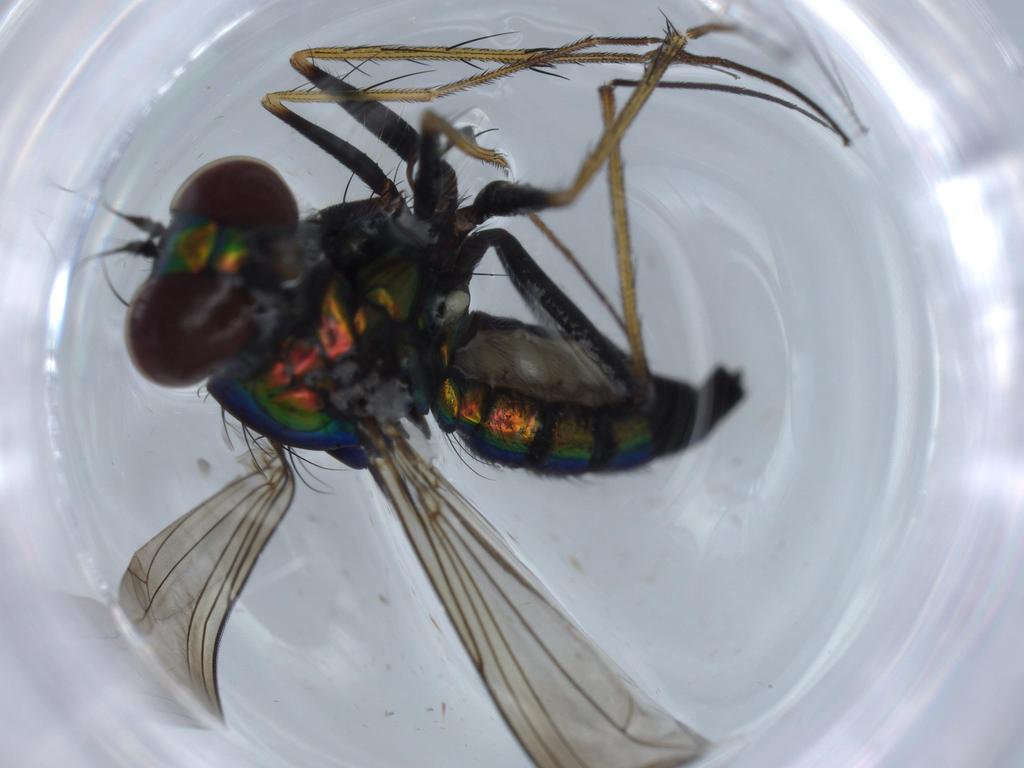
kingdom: Animalia
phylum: Arthropoda
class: Insecta
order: Diptera
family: Dolichopodidae
